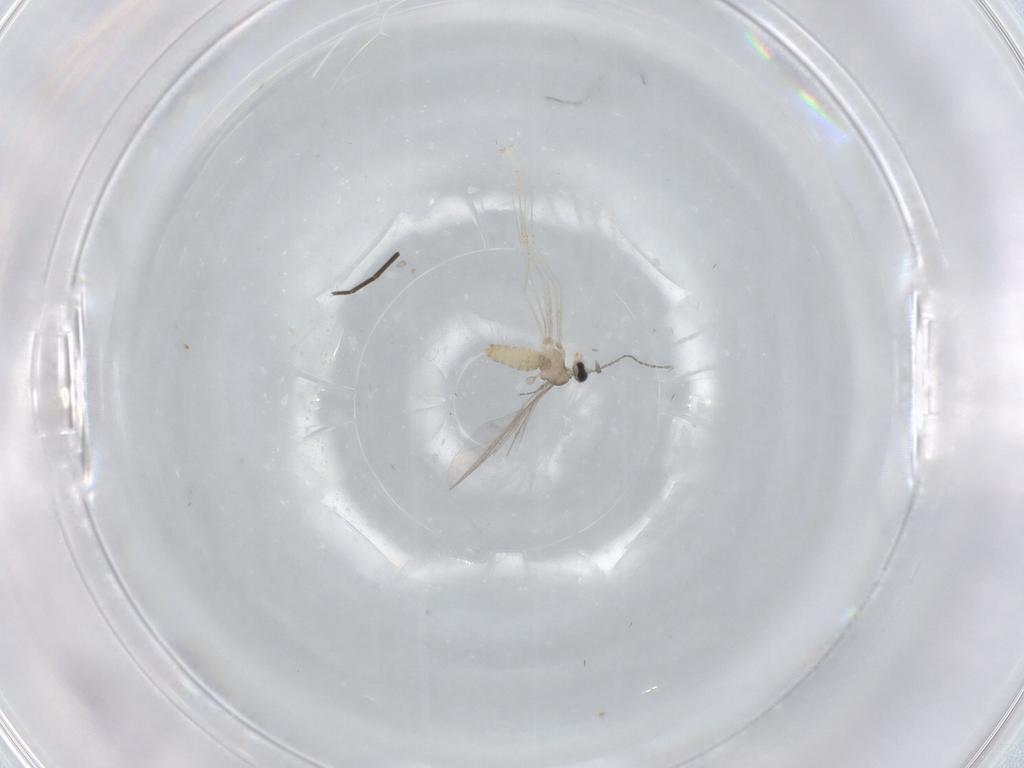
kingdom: Animalia
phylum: Arthropoda
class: Insecta
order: Diptera
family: Cecidomyiidae
